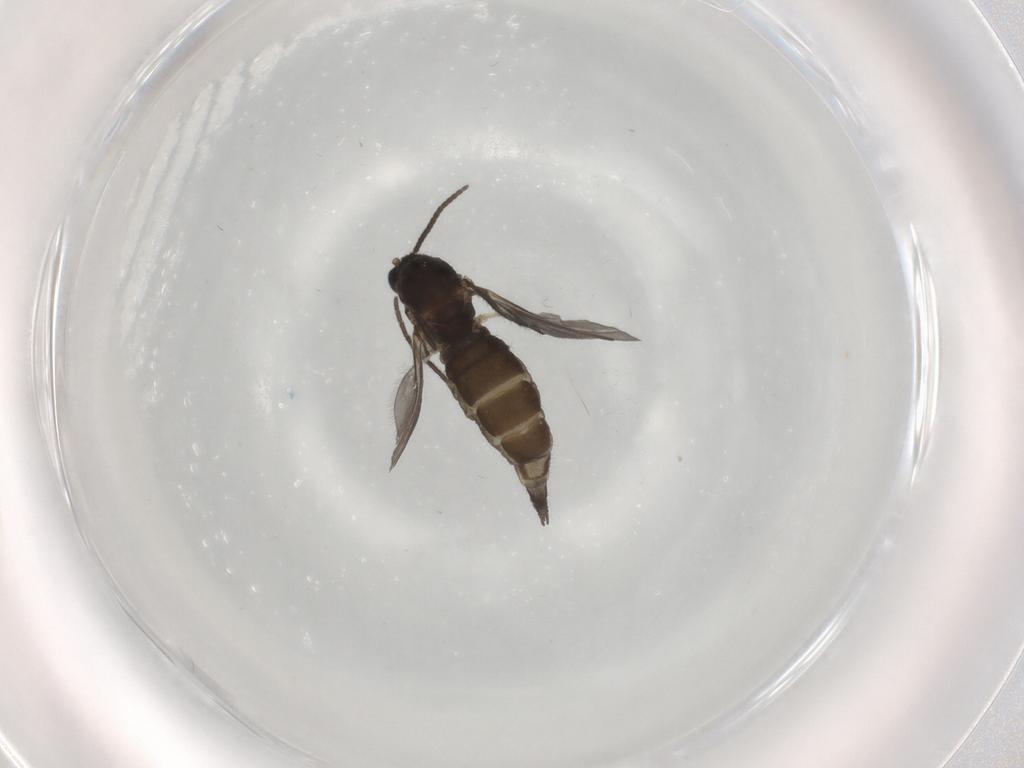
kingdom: Animalia
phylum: Arthropoda
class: Insecta
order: Diptera
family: Sciaridae
